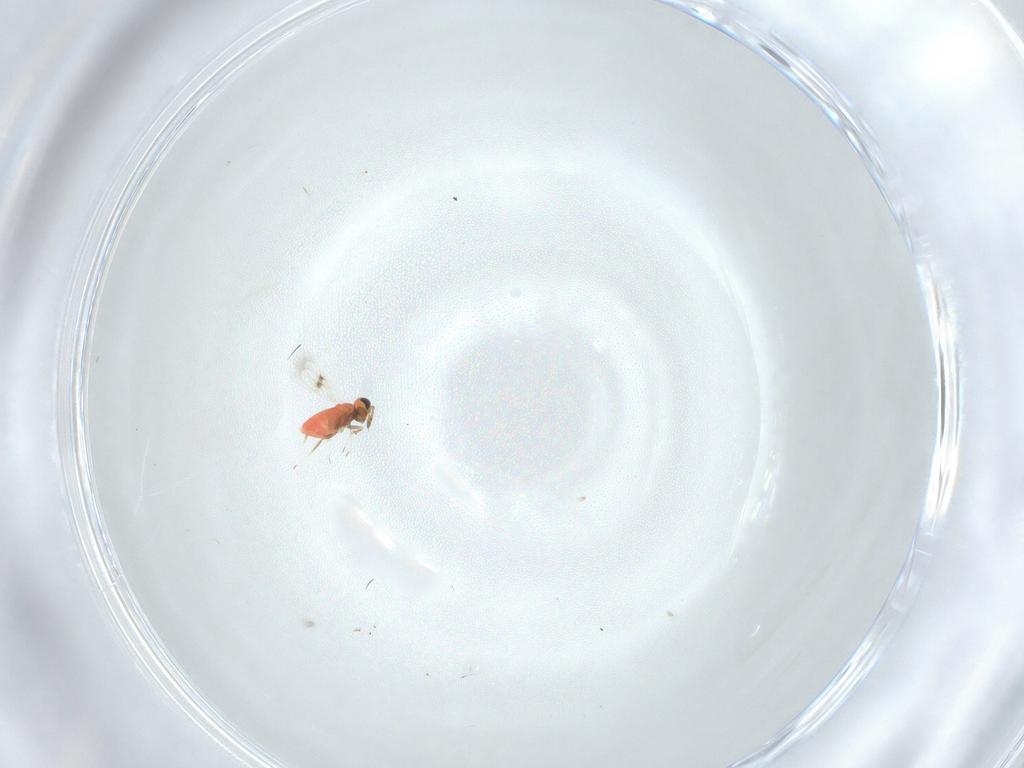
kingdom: Animalia
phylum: Arthropoda
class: Insecta
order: Hymenoptera
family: Trichogrammatidae
